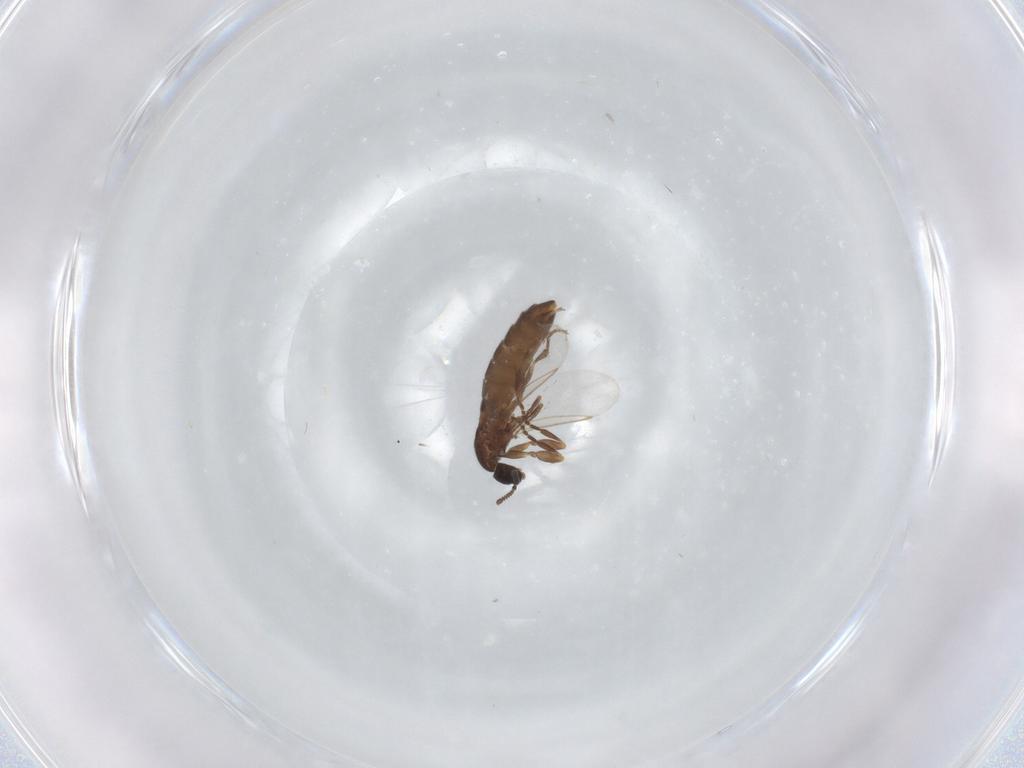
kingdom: Animalia
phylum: Arthropoda
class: Insecta
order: Diptera
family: Scatopsidae
